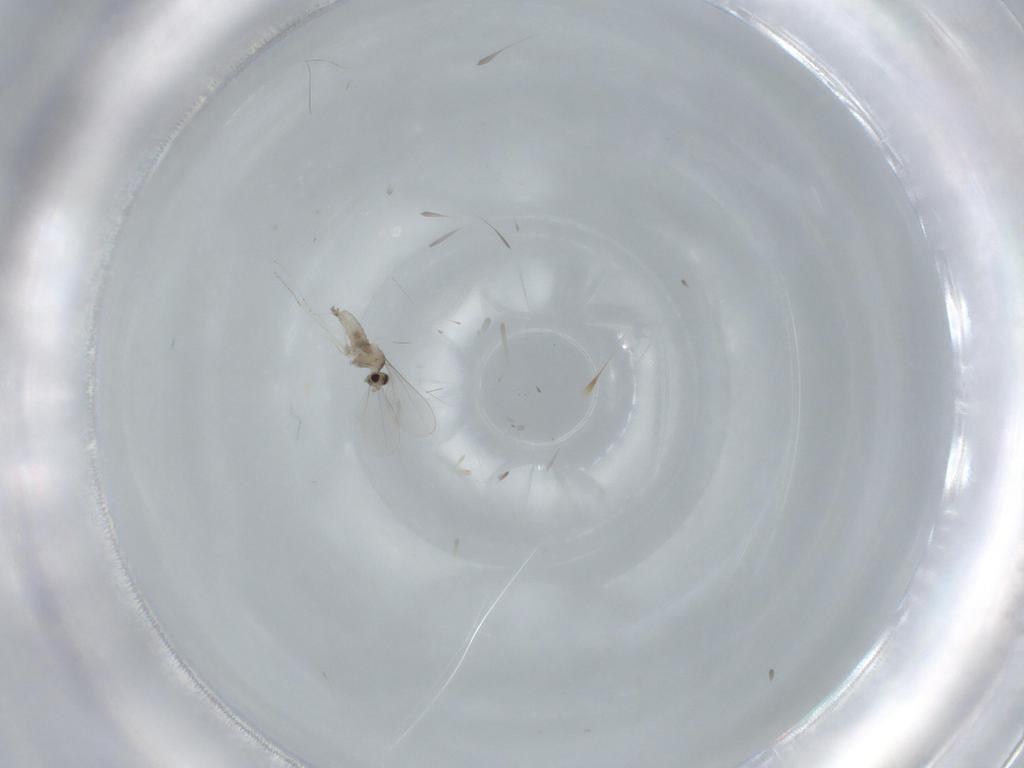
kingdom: Animalia
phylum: Arthropoda
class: Insecta
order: Diptera
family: Cecidomyiidae
